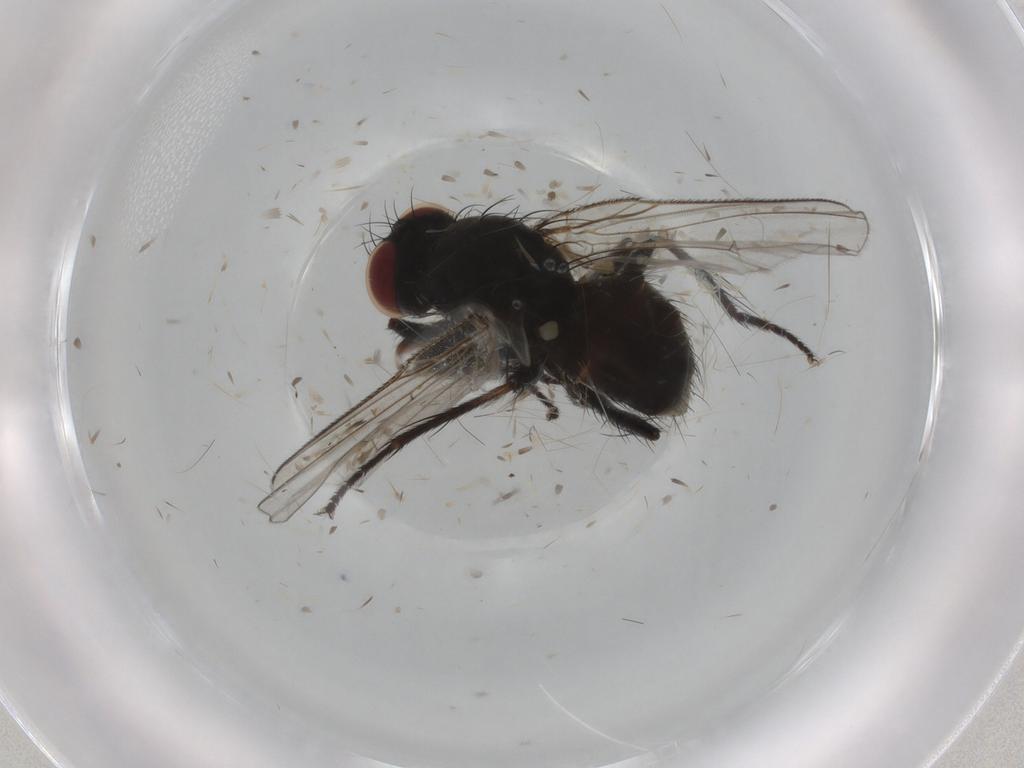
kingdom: Animalia
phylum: Arthropoda
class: Insecta
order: Diptera
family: Muscidae
